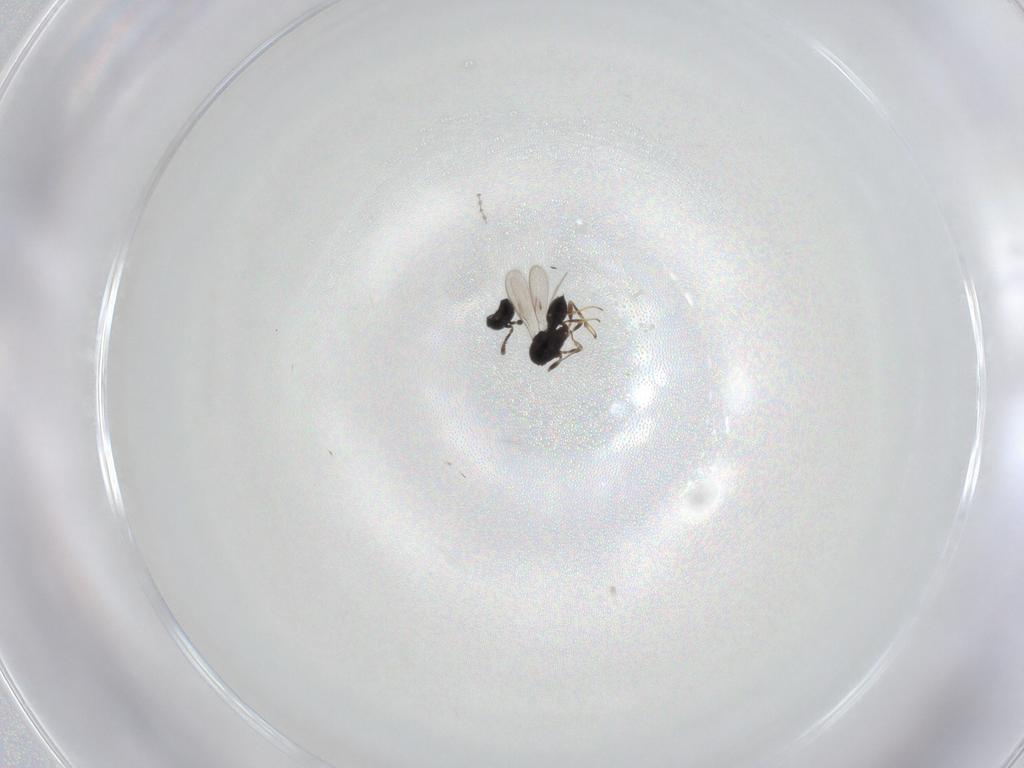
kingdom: Animalia
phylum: Arthropoda
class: Insecta
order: Hymenoptera
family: Scelionidae
